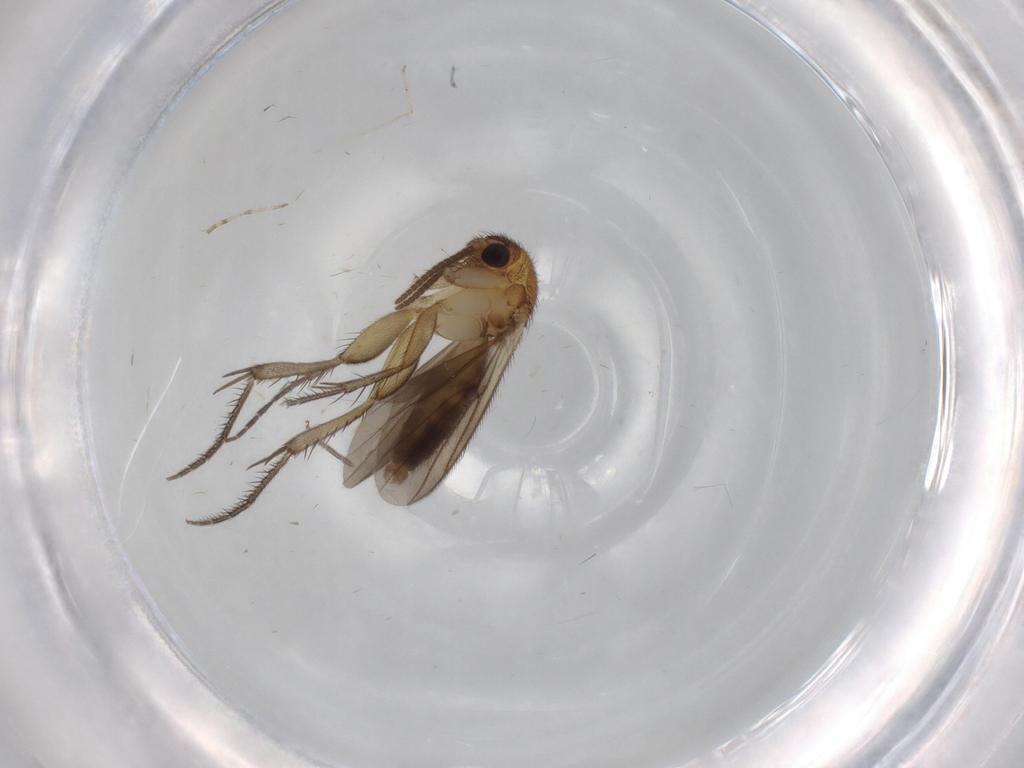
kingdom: Animalia
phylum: Arthropoda
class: Insecta
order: Diptera
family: Mycetophilidae
